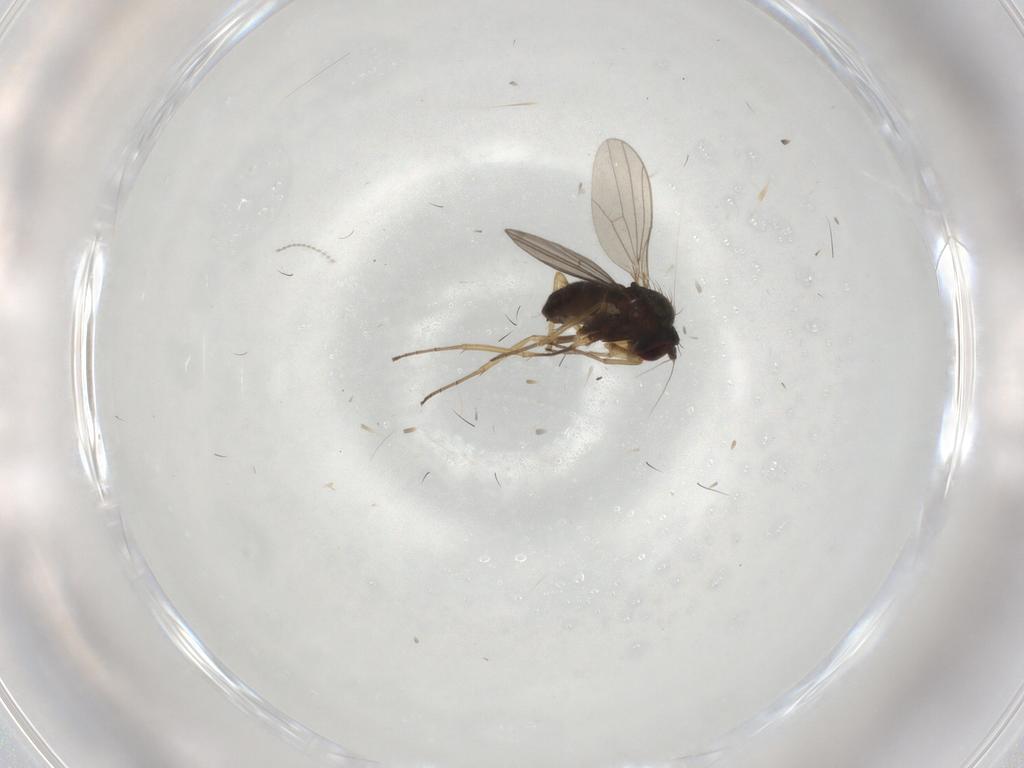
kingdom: Animalia
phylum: Arthropoda
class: Insecta
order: Diptera
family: Dolichopodidae
